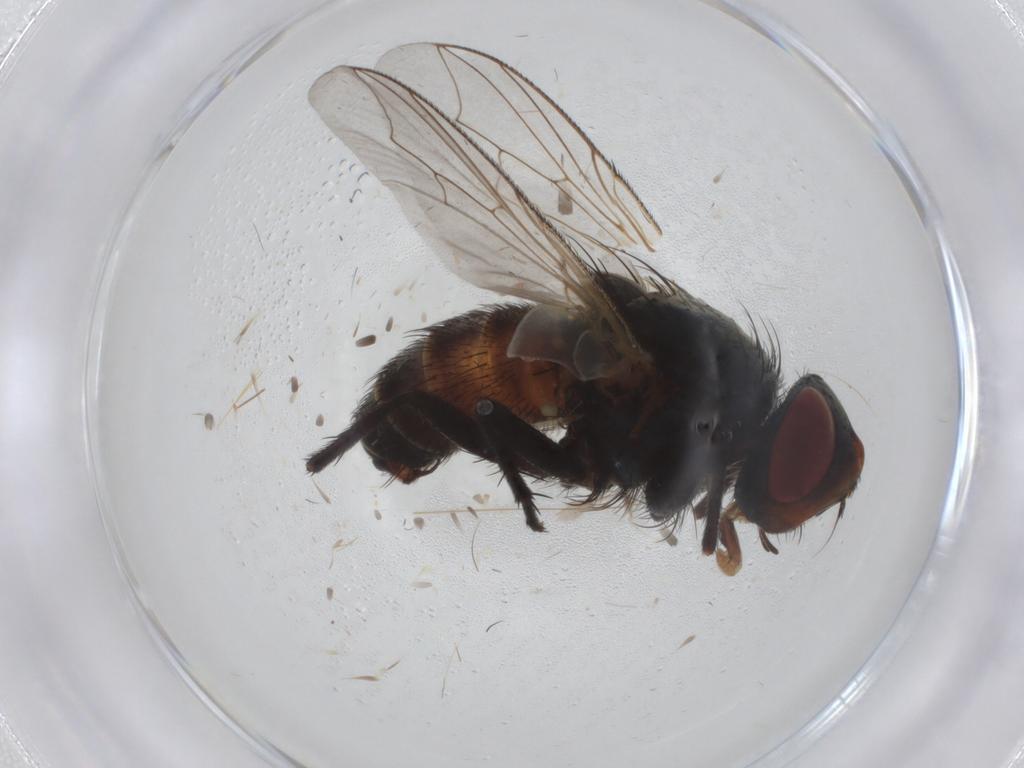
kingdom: Animalia
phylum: Arthropoda
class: Insecta
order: Diptera
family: Sarcophagidae
